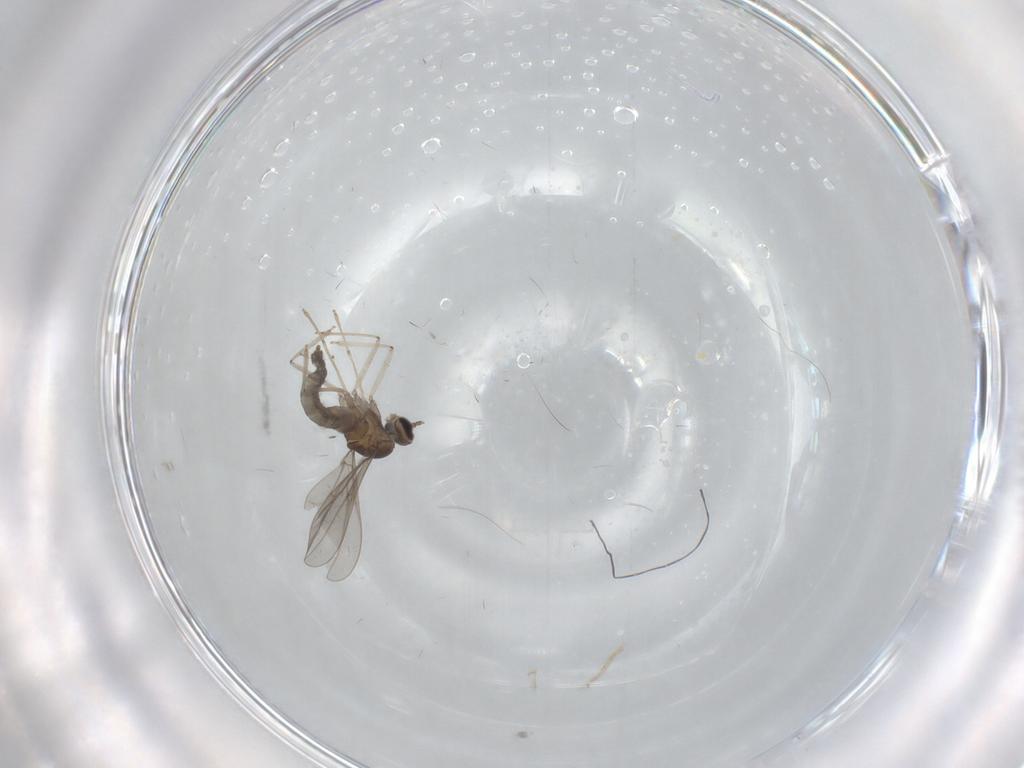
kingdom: Animalia
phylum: Arthropoda
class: Insecta
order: Diptera
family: Cecidomyiidae
